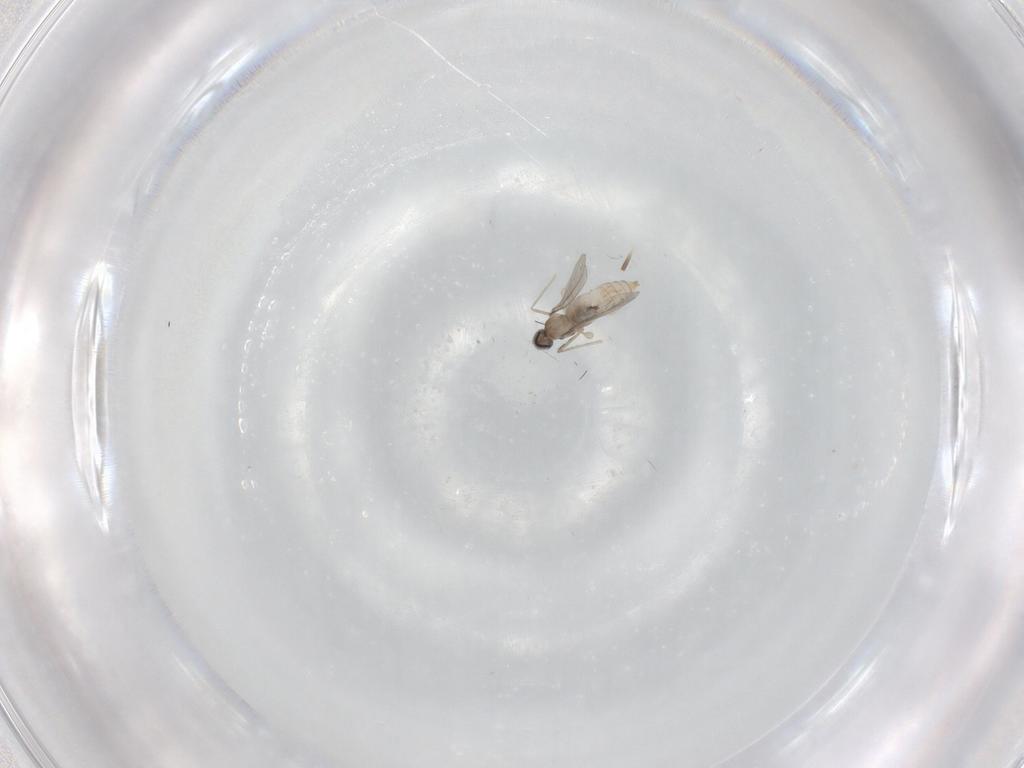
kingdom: Animalia
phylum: Arthropoda
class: Insecta
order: Diptera
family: Cecidomyiidae
